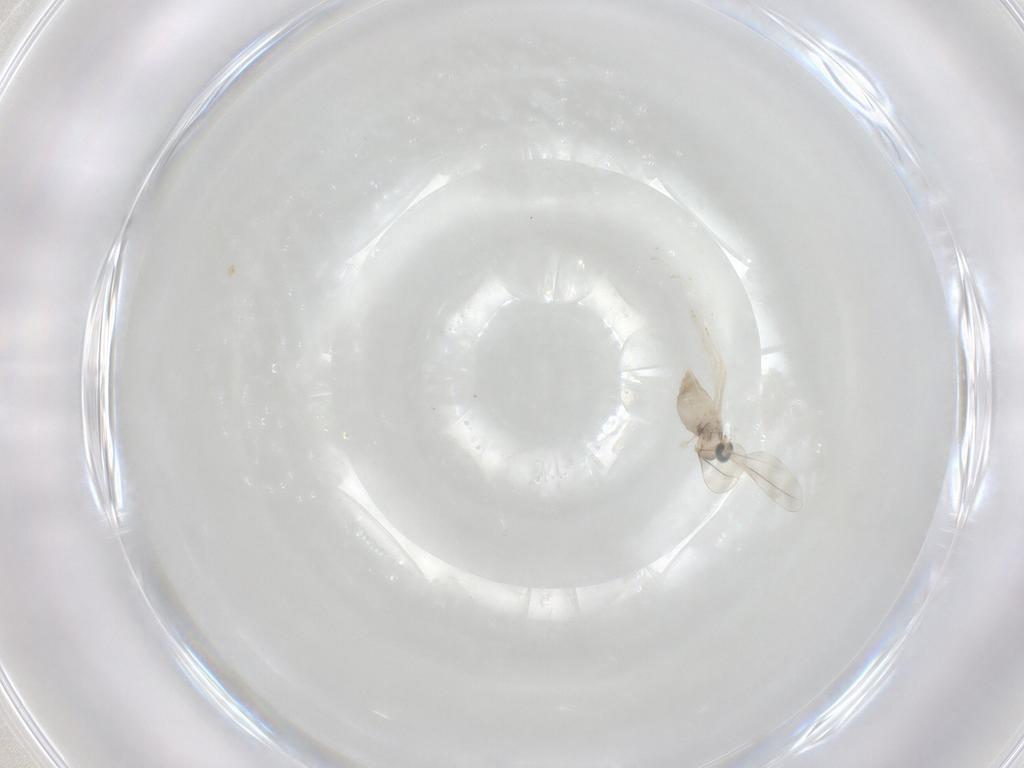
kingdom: Animalia
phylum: Arthropoda
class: Insecta
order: Diptera
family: Cecidomyiidae
